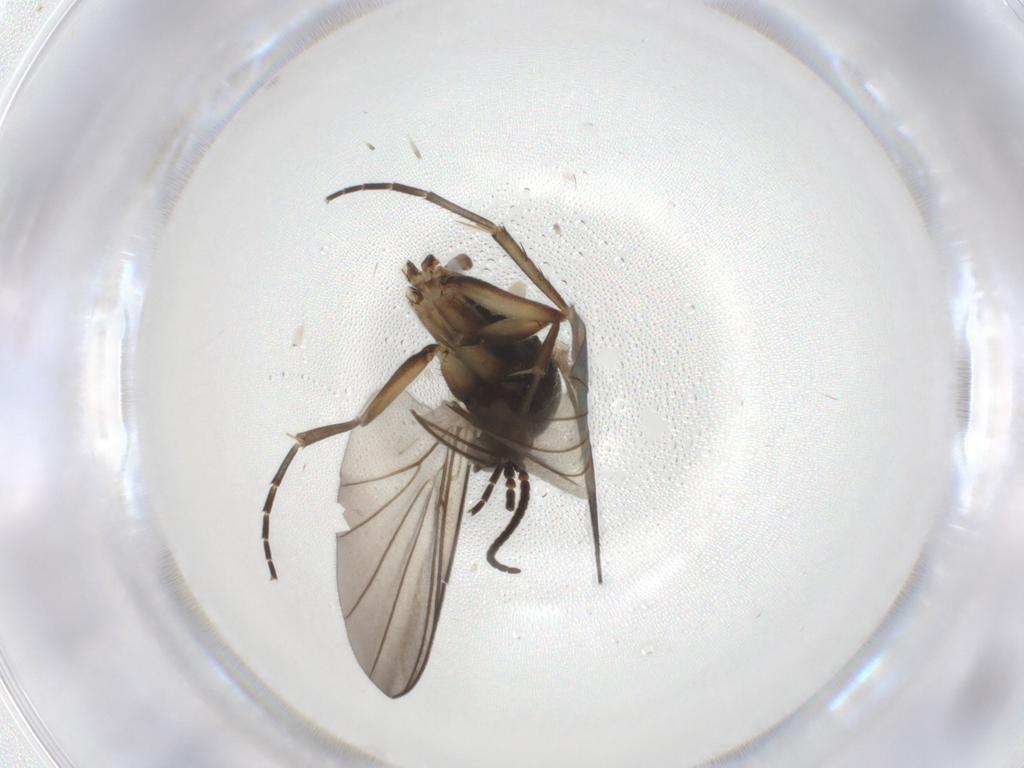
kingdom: Animalia
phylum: Arthropoda
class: Insecta
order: Diptera
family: Mycetophilidae
